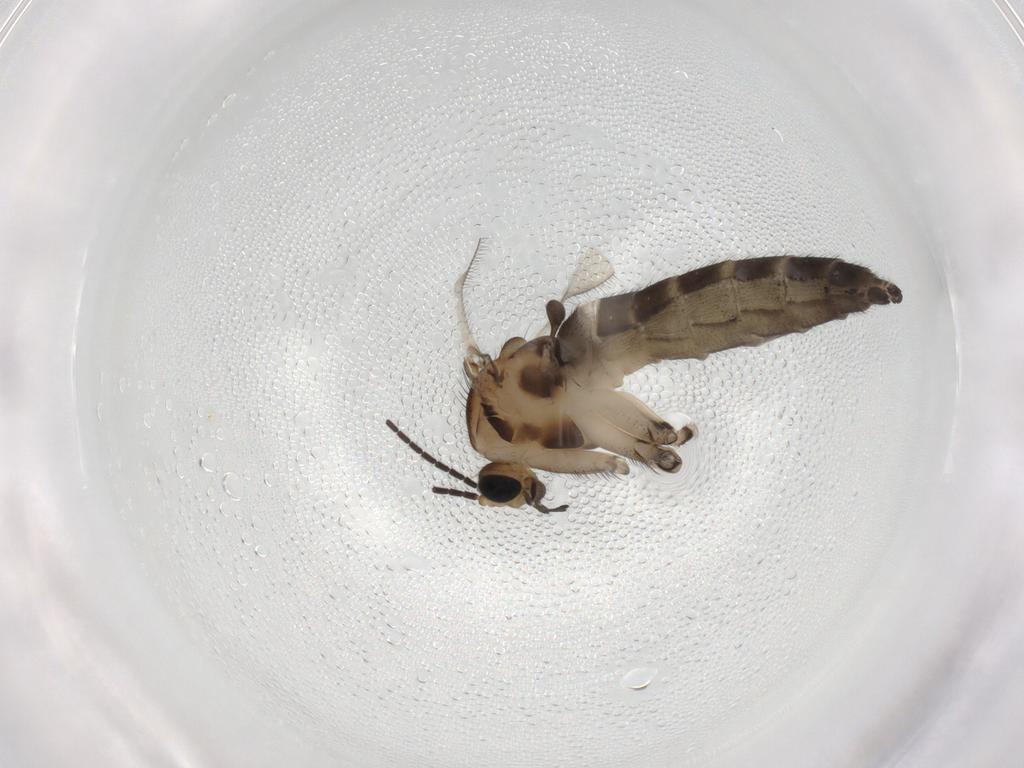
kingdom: Animalia
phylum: Arthropoda
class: Insecta
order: Diptera
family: Sciaridae
